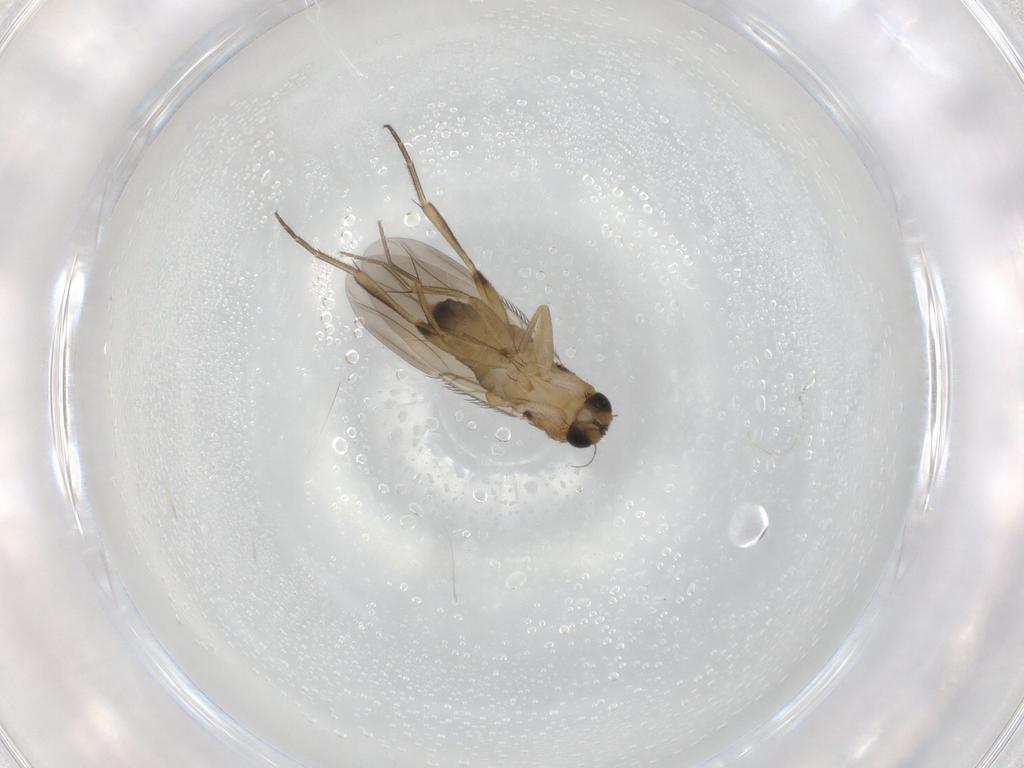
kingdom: Animalia
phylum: Arthropoda
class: Insecta
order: Diptera
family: Phoridae
